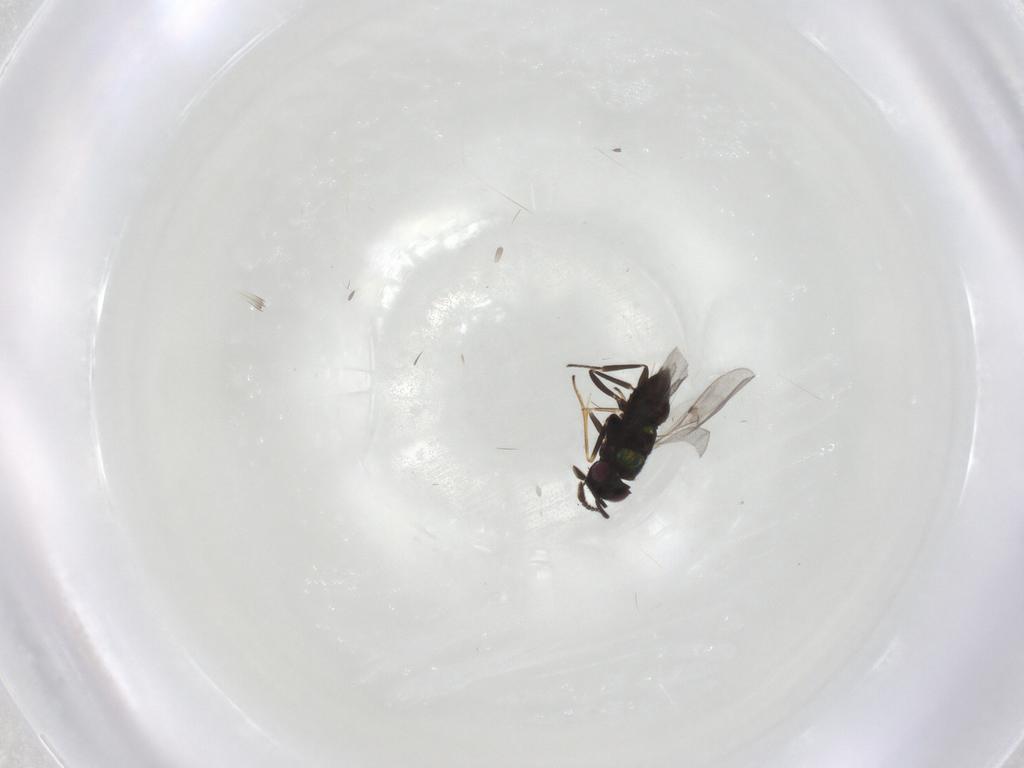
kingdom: Animalia
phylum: Arthropoda
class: Insecta
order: Hymenoptera
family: Encyrtidae
